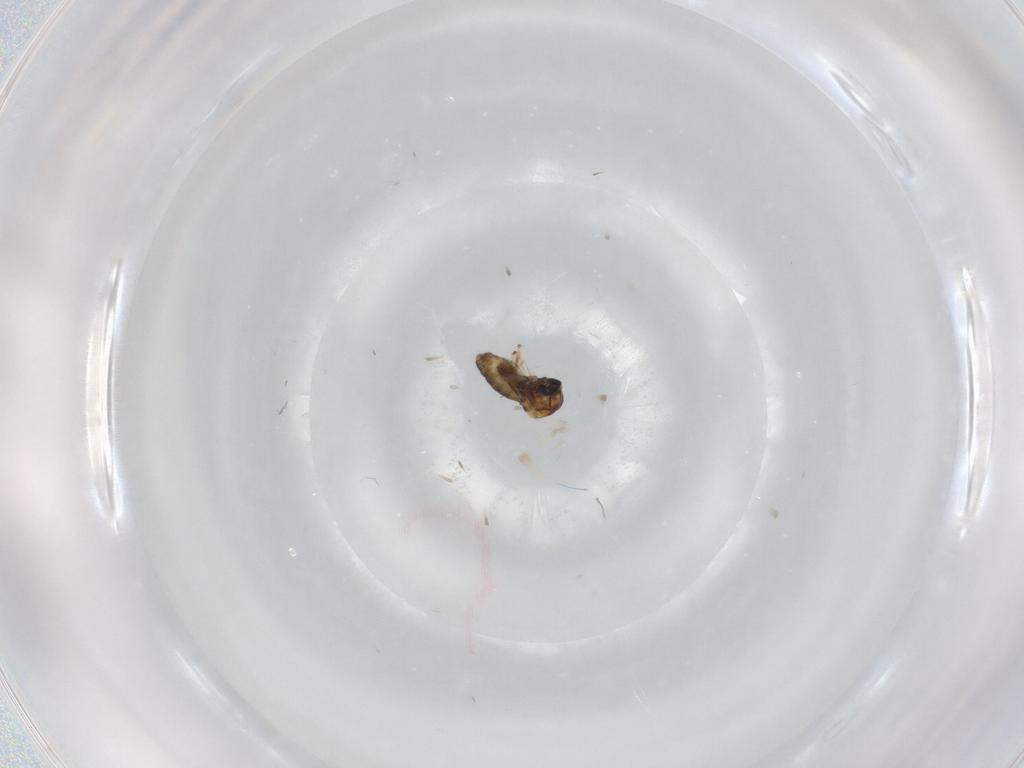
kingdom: Animalia
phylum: Arthropoda
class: Insecta
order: Diptera
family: Ceratopogonidae
